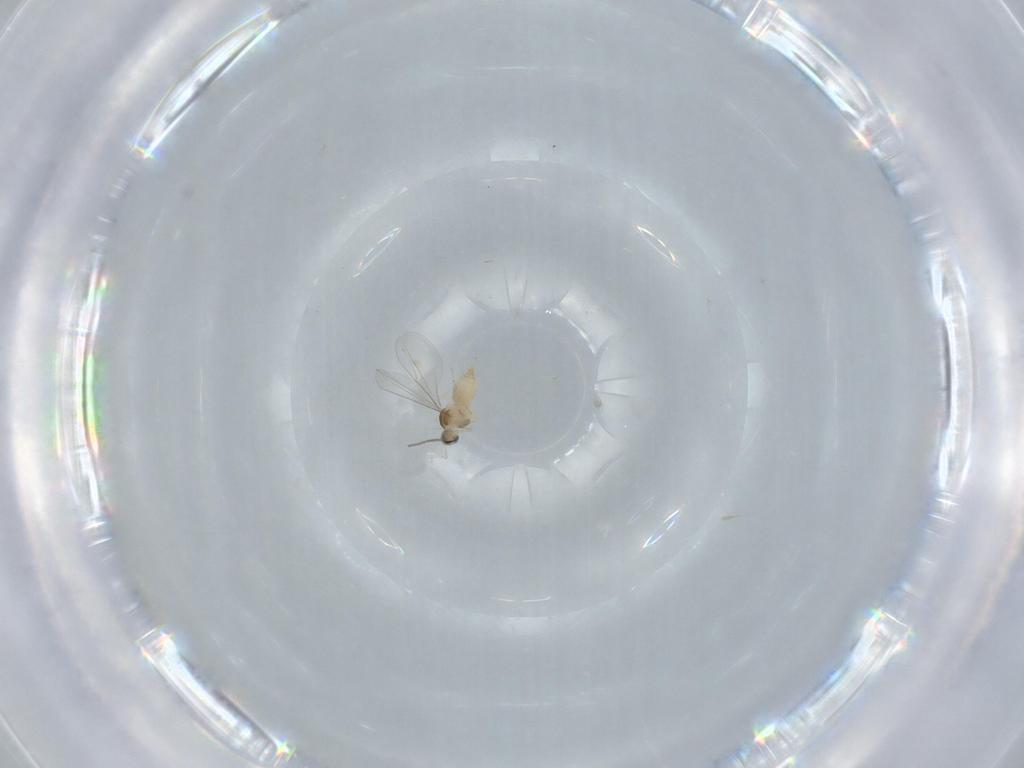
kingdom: Animalia
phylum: Arthropoda
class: Insecta
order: Diptera
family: Cecidomyiidae
